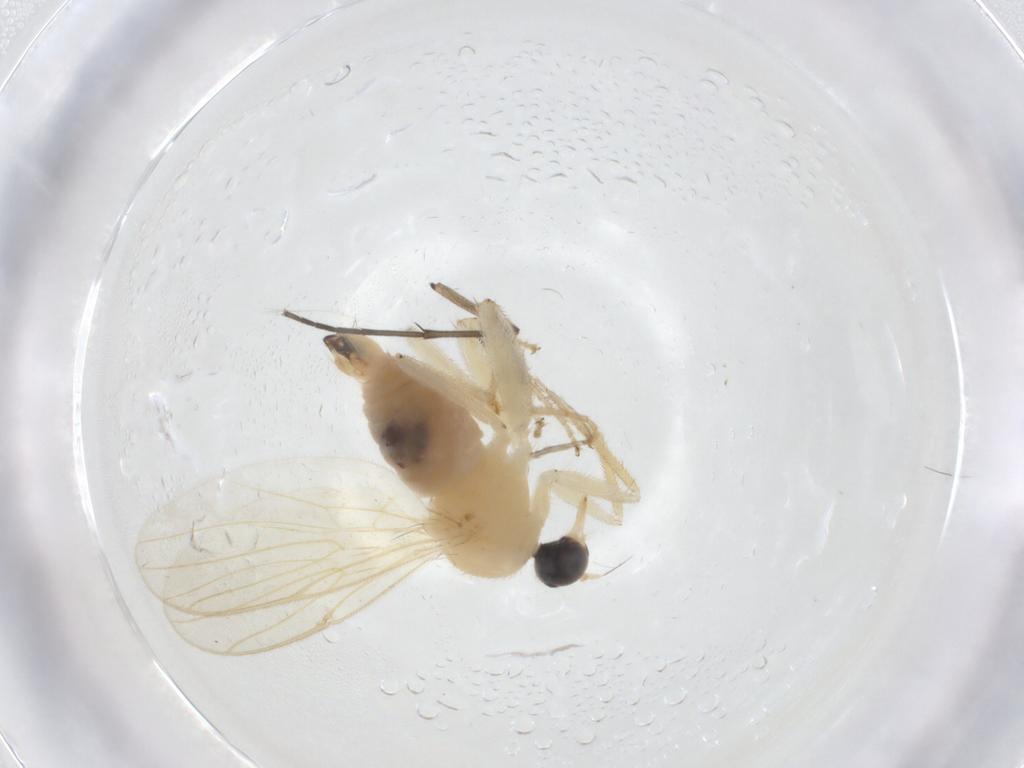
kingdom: Animalia
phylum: Arthropoda
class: Insecta
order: Diptera
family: Hybotidae
